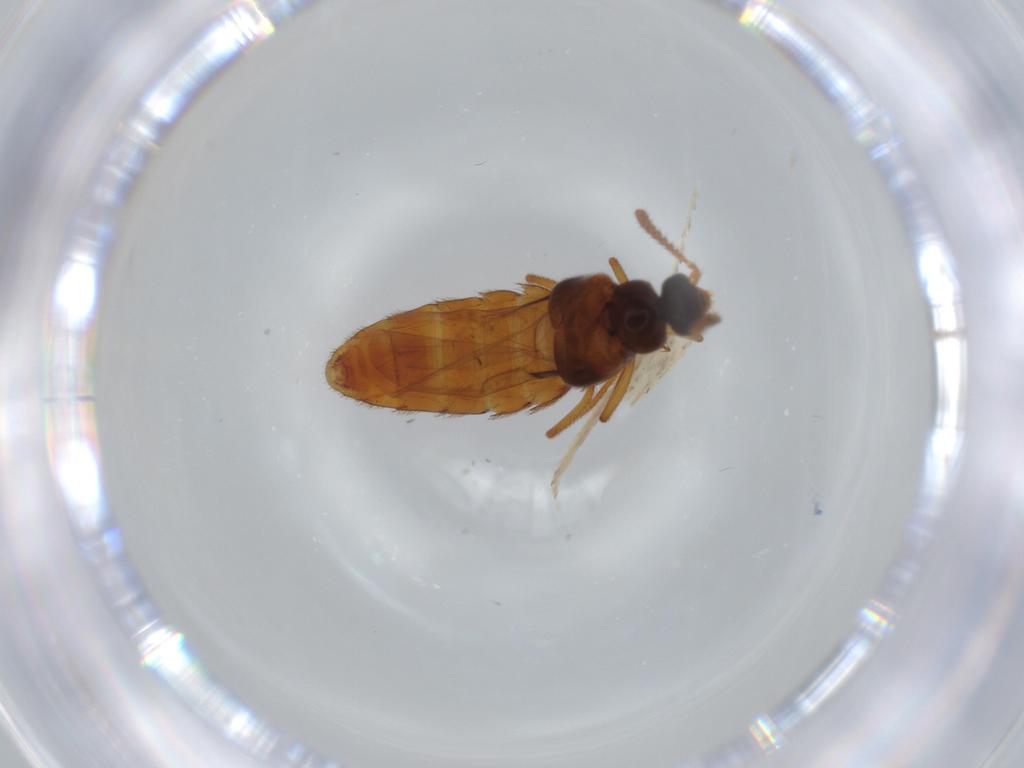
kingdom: Animalia
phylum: Arthropoda
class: Insecta
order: Coleoptera
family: Staphylinidae
